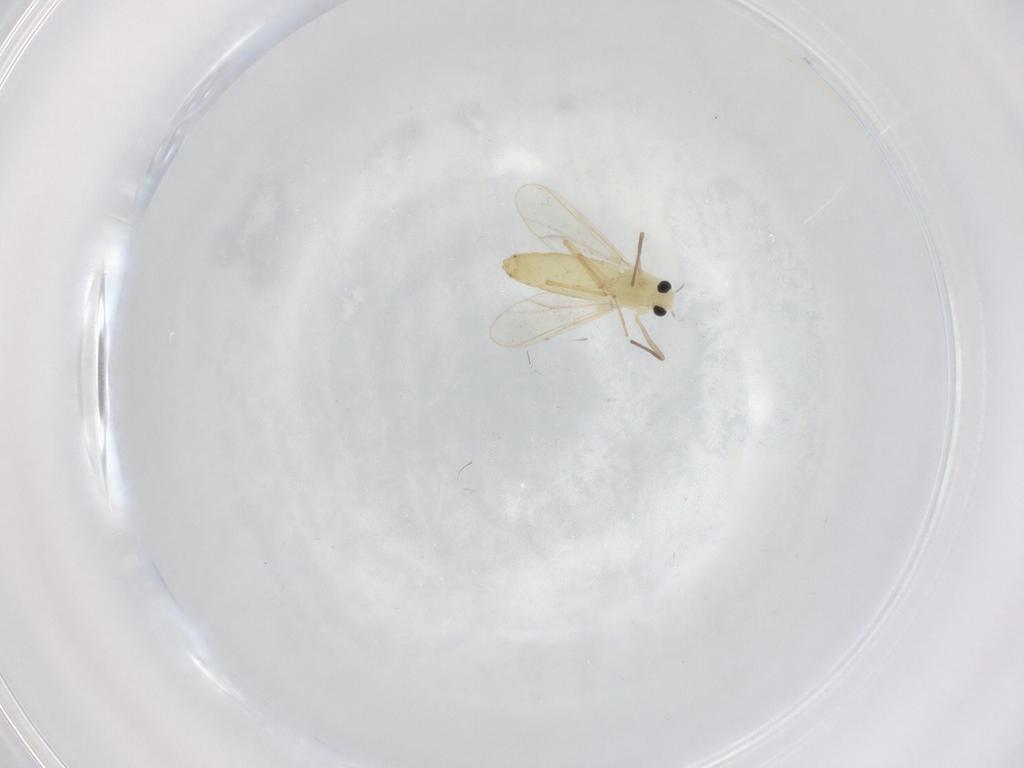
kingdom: Animalia
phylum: Arthropoda
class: Insecta
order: Diptera
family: Chironomidae
